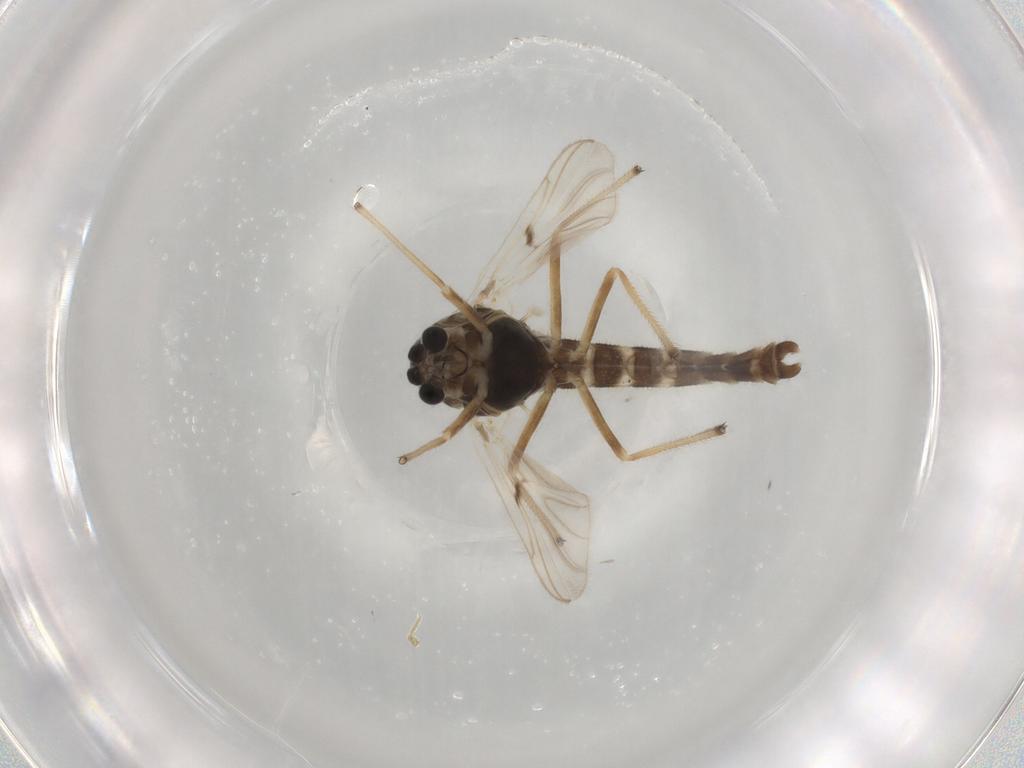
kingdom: Animalia
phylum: Arthropoda
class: Insecta
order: Diptera
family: Chironomidae
